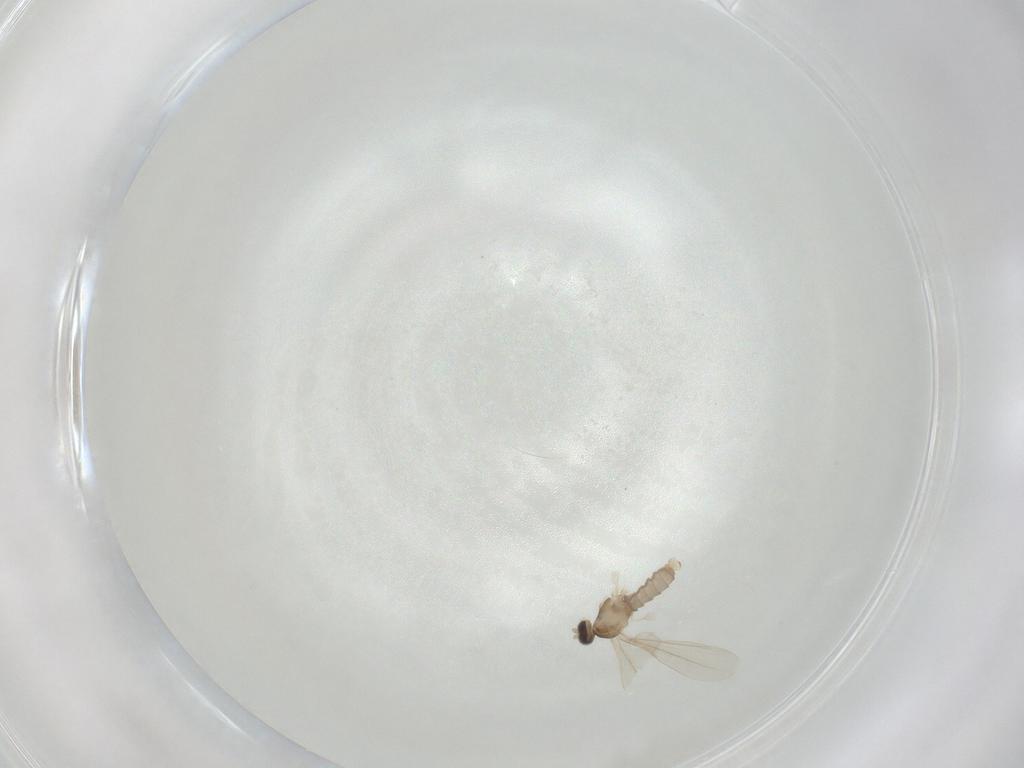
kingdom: Animalia
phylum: Arthropoda
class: Insecta
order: Diptera
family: Cecidomyiidae
